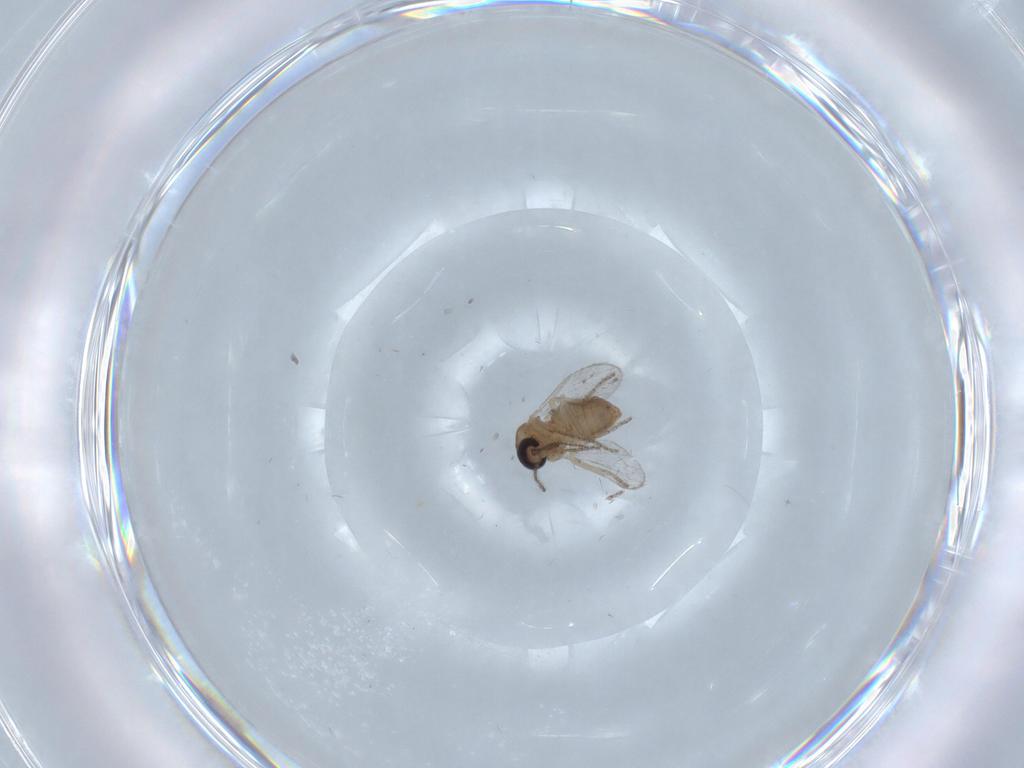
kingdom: Animalia
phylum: Arthropoda
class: Insecta
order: Diptera
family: Ceratopogonidae
